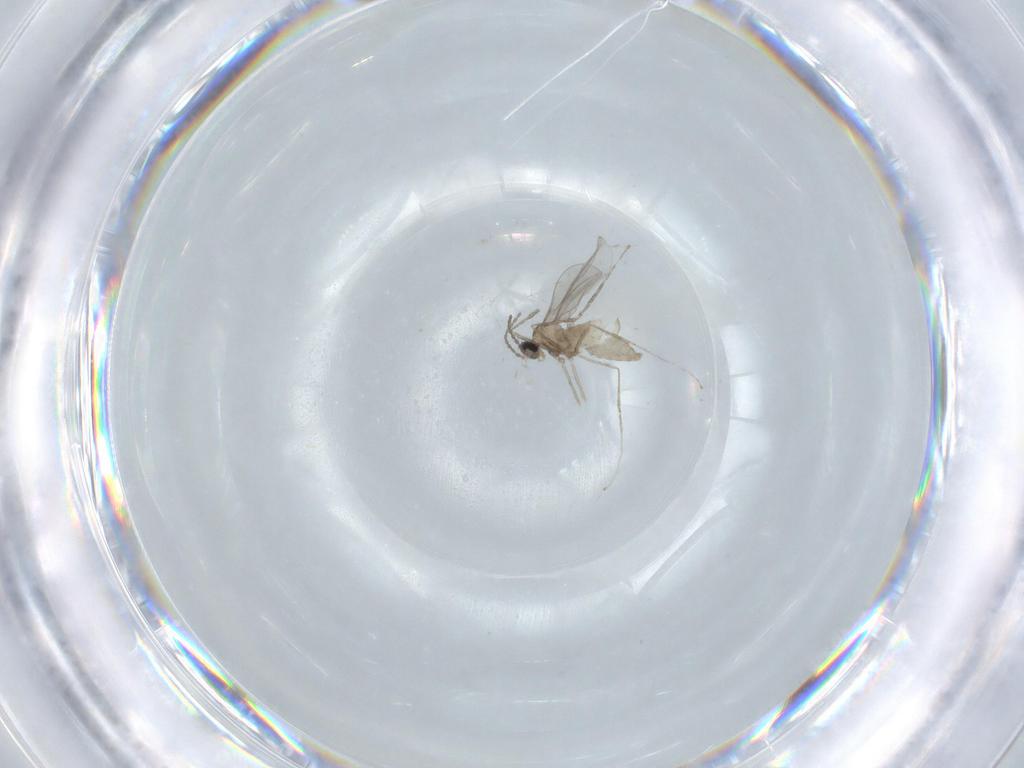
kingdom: Animalia
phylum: Arthropoda
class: Insecta
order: Diptera
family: Cecidomyiidae
